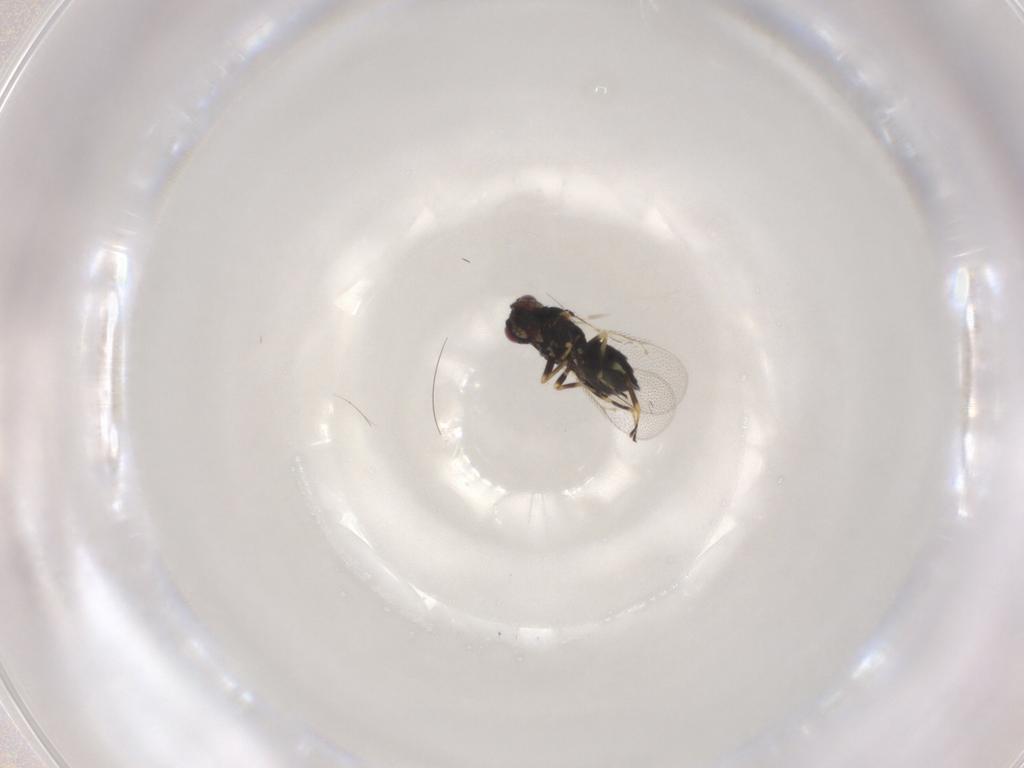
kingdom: Animalia
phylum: Arthropoda
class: Insecta
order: Hymenoptera
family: Eulophidae
